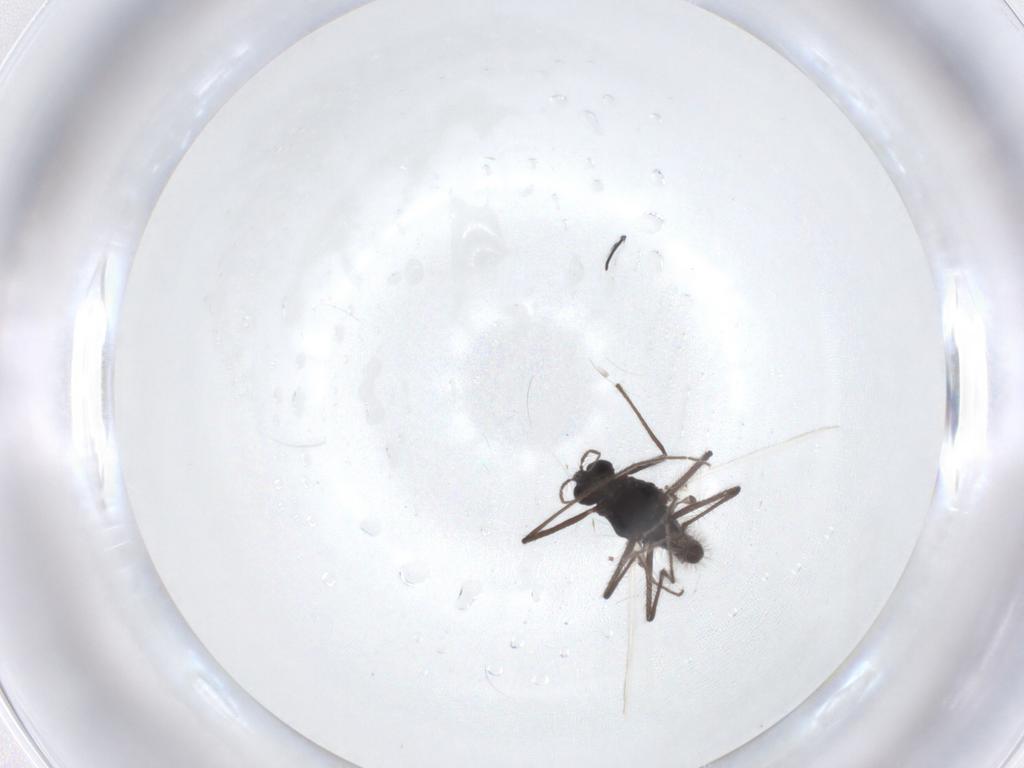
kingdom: Animalia
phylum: Arthropoda
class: Insecta
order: Diptera
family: Chironomidae
